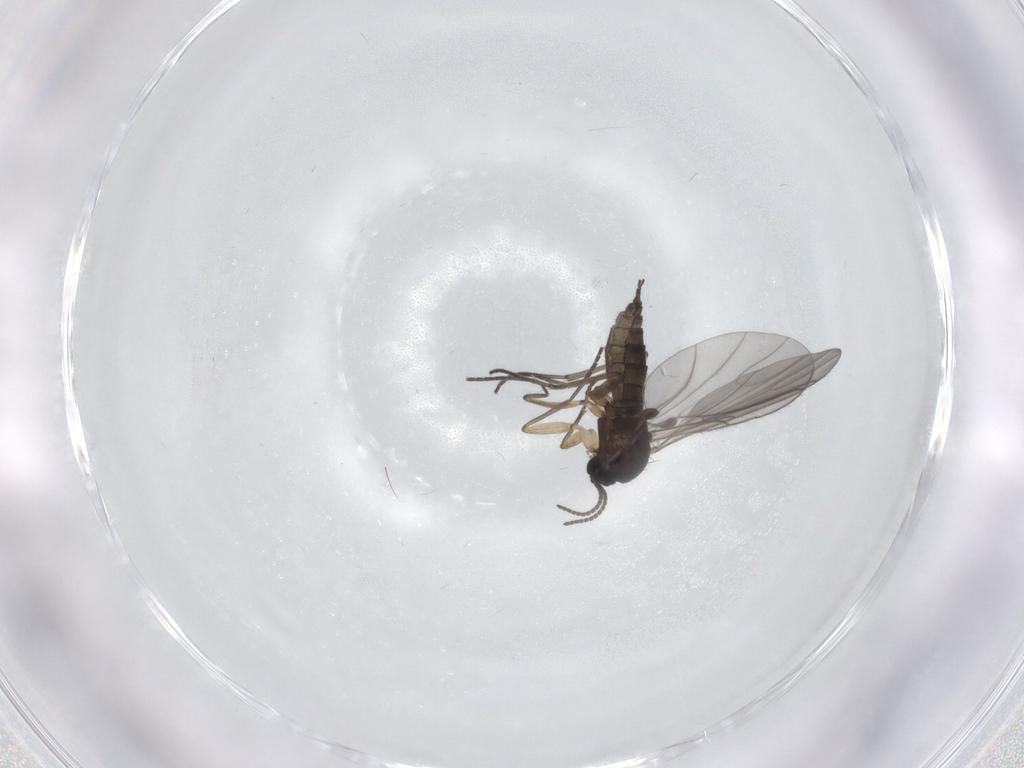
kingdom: Animalia
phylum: Arthropoda
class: Insecta
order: Diptera
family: Sciaridae
